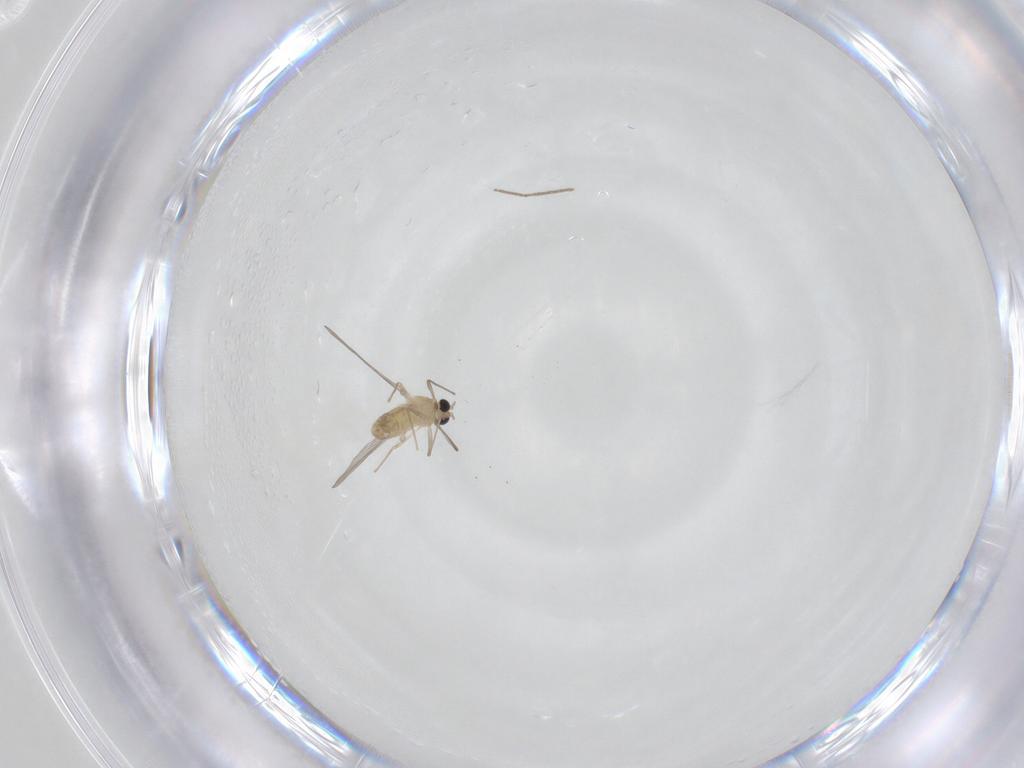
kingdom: Animalia
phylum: Arthropoda
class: Insecta
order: Diptera
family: Chironomidae
